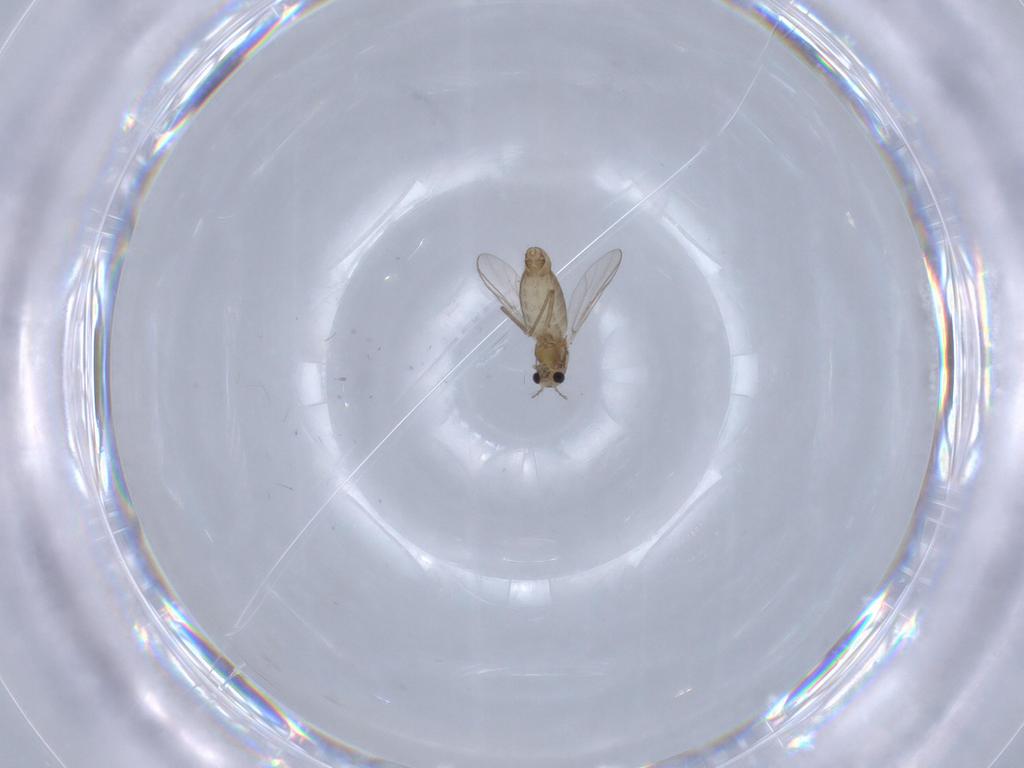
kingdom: Animalia
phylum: Arthropoda
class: Insecta
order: Diptera
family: Chironomidae
